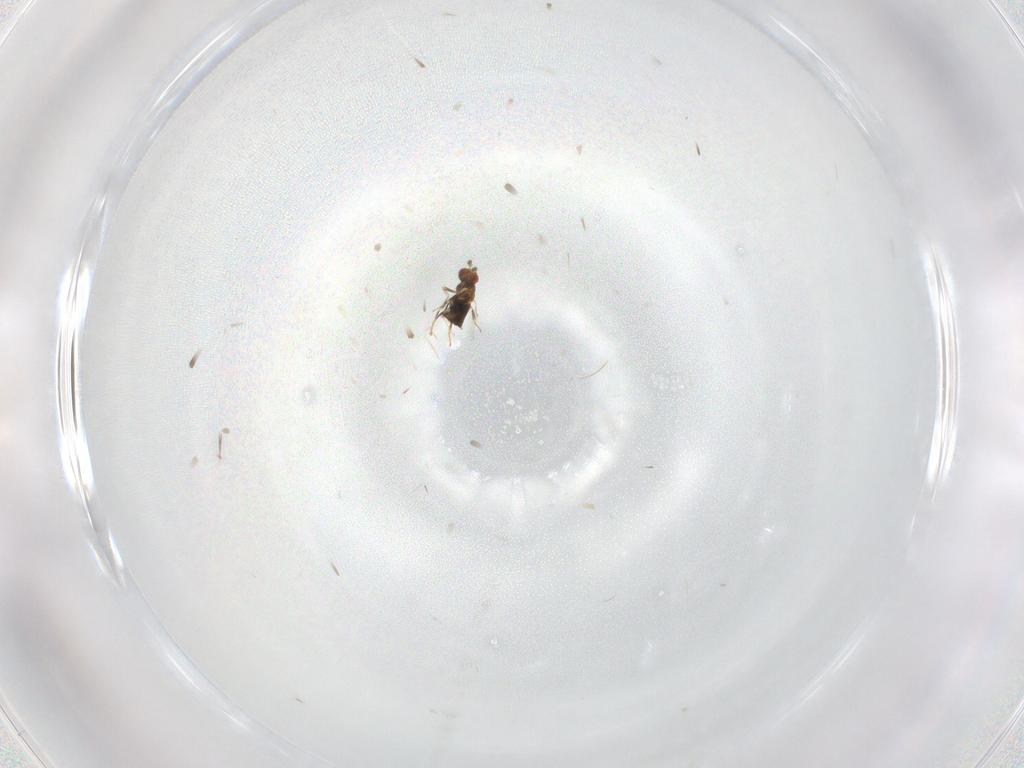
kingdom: Animalia
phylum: Arthropoda
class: Insecta
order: Hymenoptera
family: Trichogrammatidae
